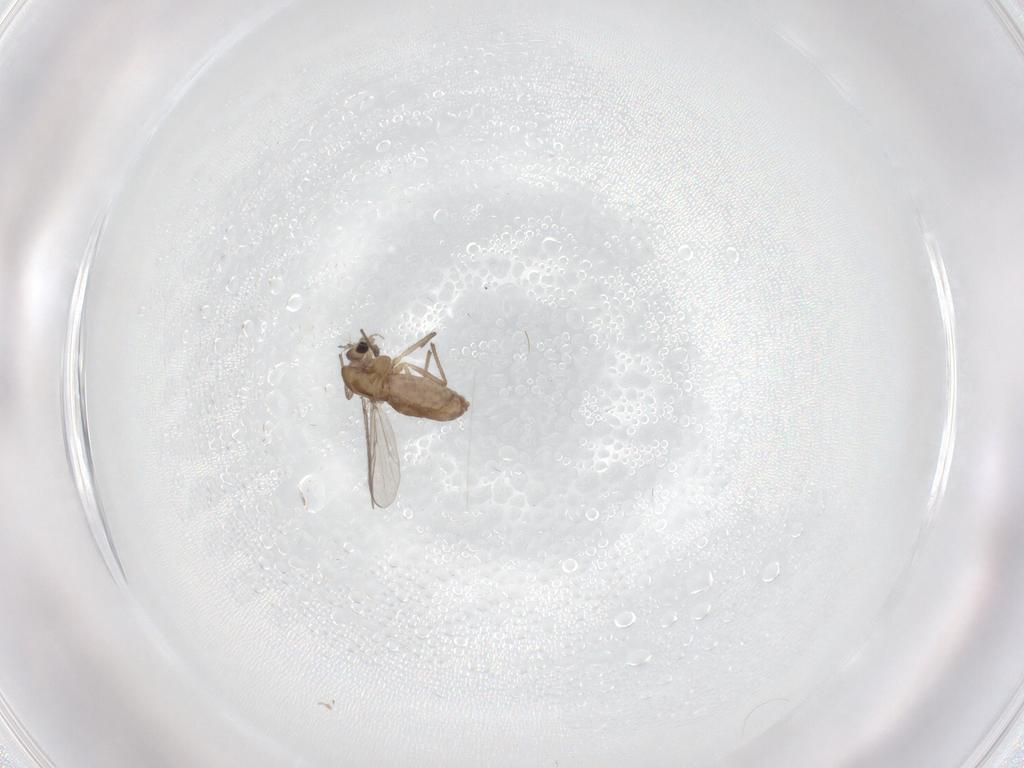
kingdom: Animalia
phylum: Arthropoda
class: Insecta
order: Diptera
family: Chironomidae
